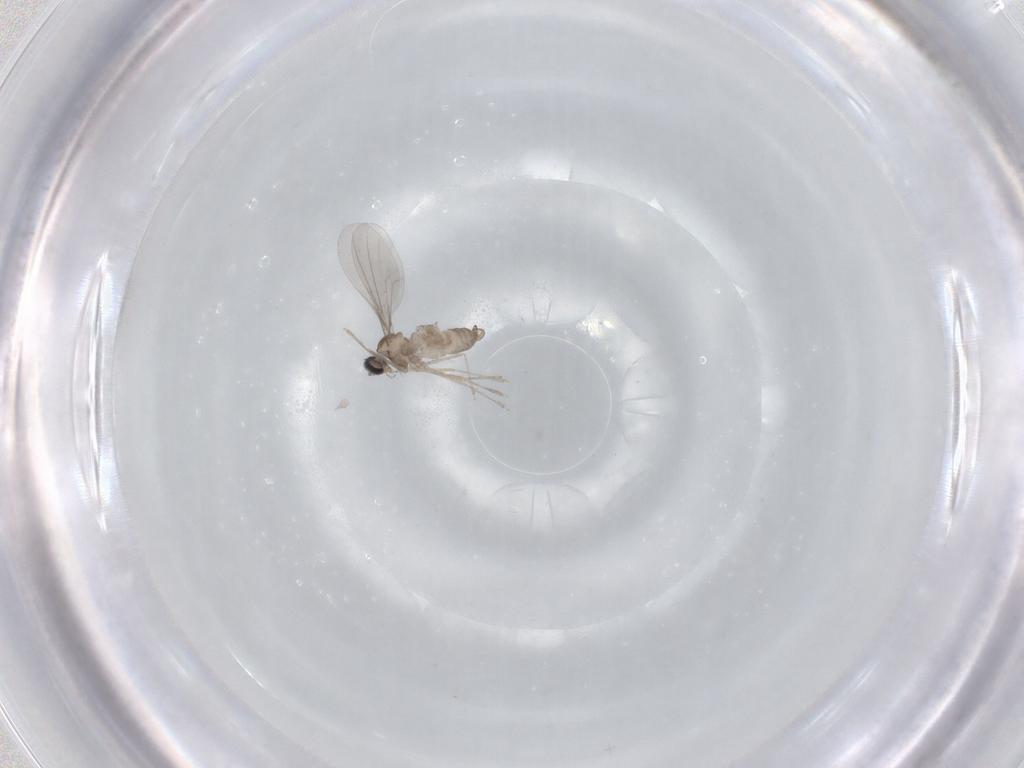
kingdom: Animalia
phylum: Arthropoda
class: Insecta
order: Diptera
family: Cecidomyiidae
